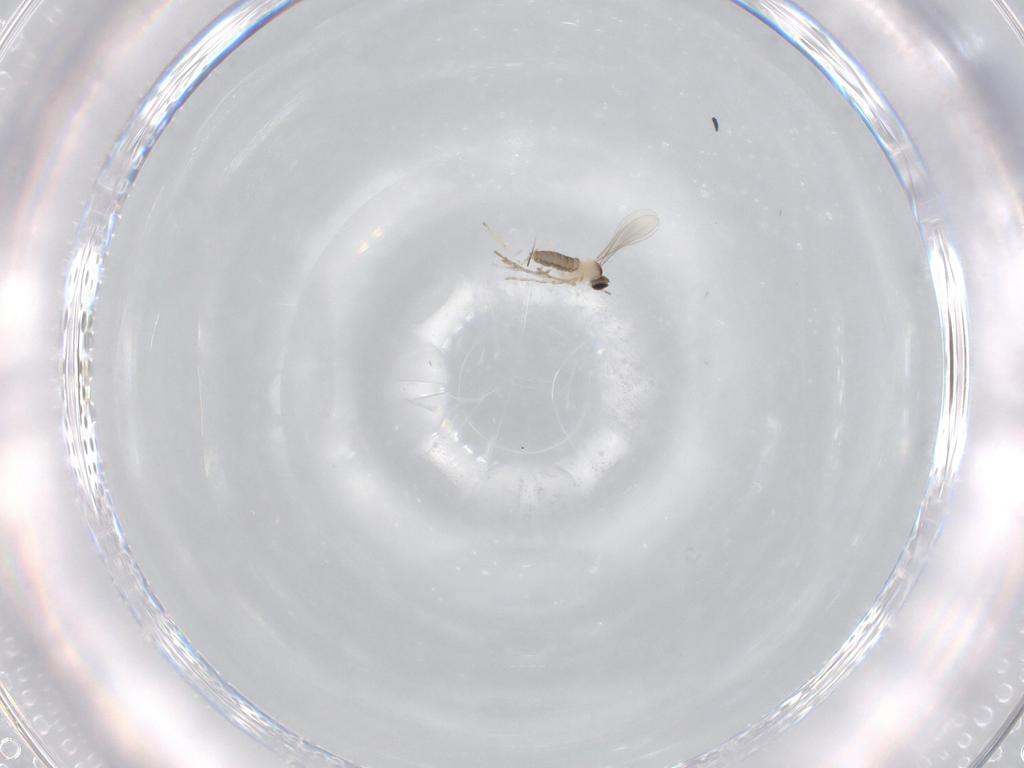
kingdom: Animalia
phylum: Arthropoda
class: Insecta
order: Diptera
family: Cecidomyiidae
